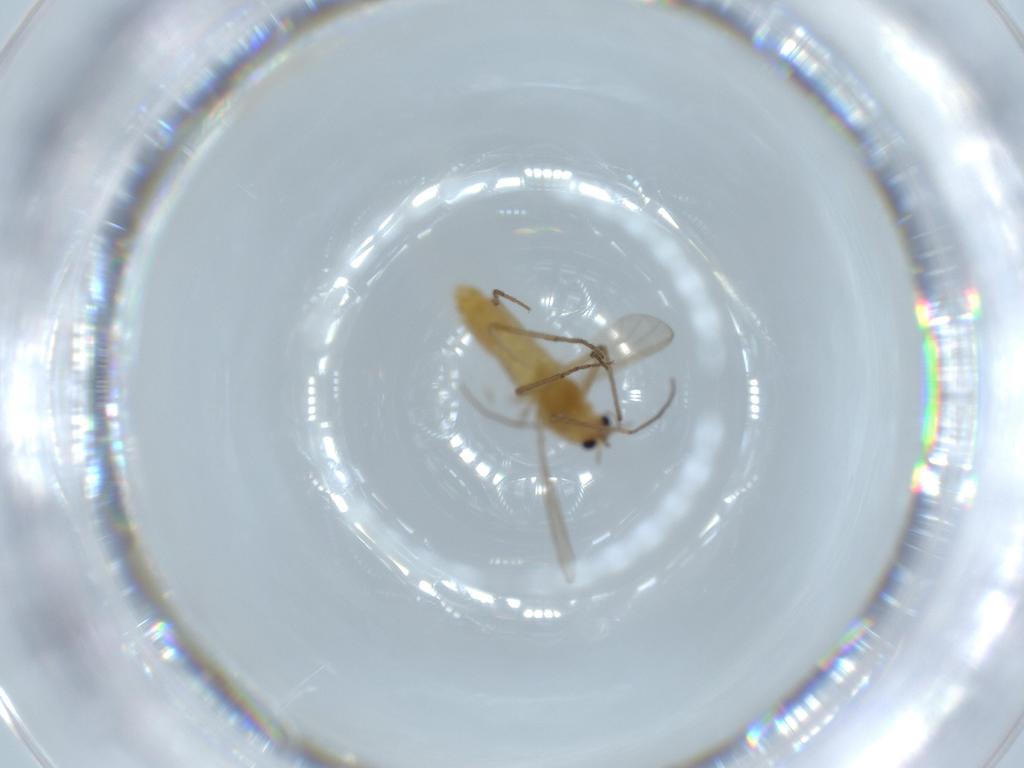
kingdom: Animalia
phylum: Arthropoda
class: Insecta
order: Diptera
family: Chironomidae
